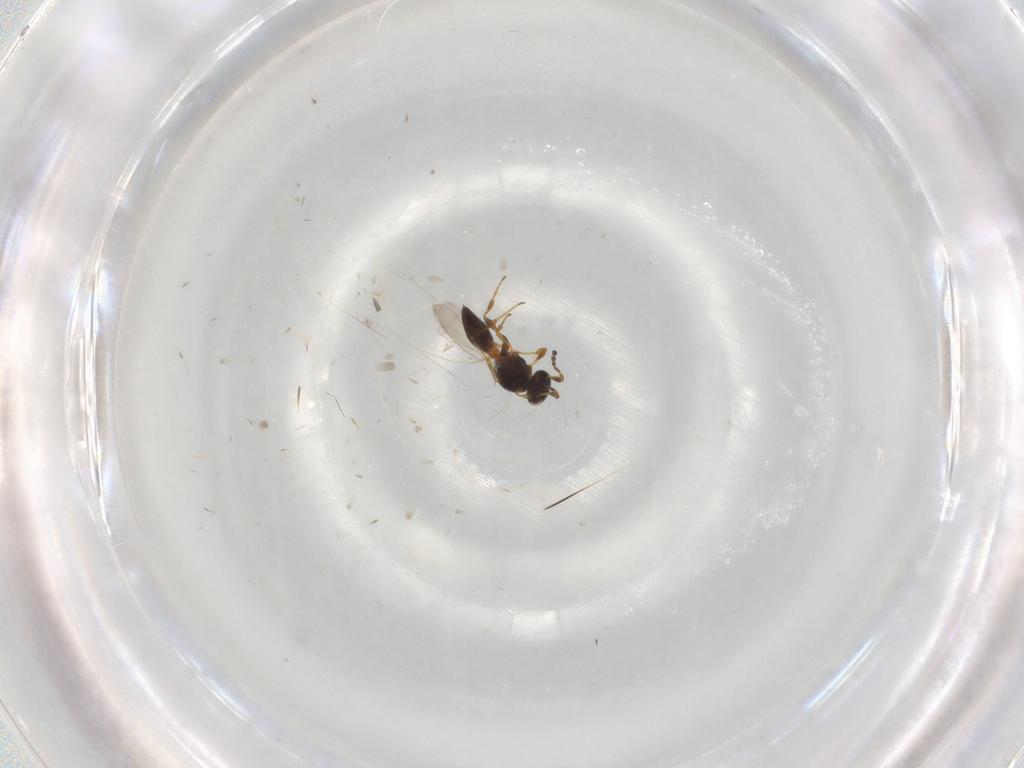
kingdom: Animalia
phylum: Arthropoda
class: Insecta
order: Hymenoptera
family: Platygastridae
